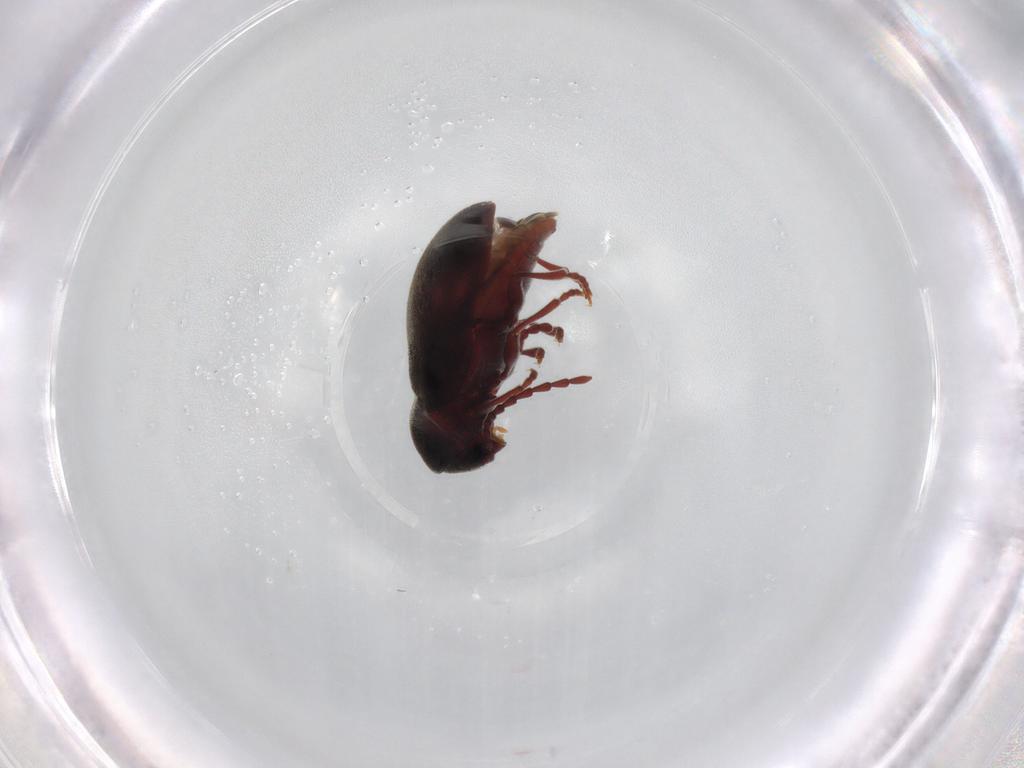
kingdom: Animalia
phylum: Arthropoda
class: Insecta
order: Coleoptera
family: Ptinidae
